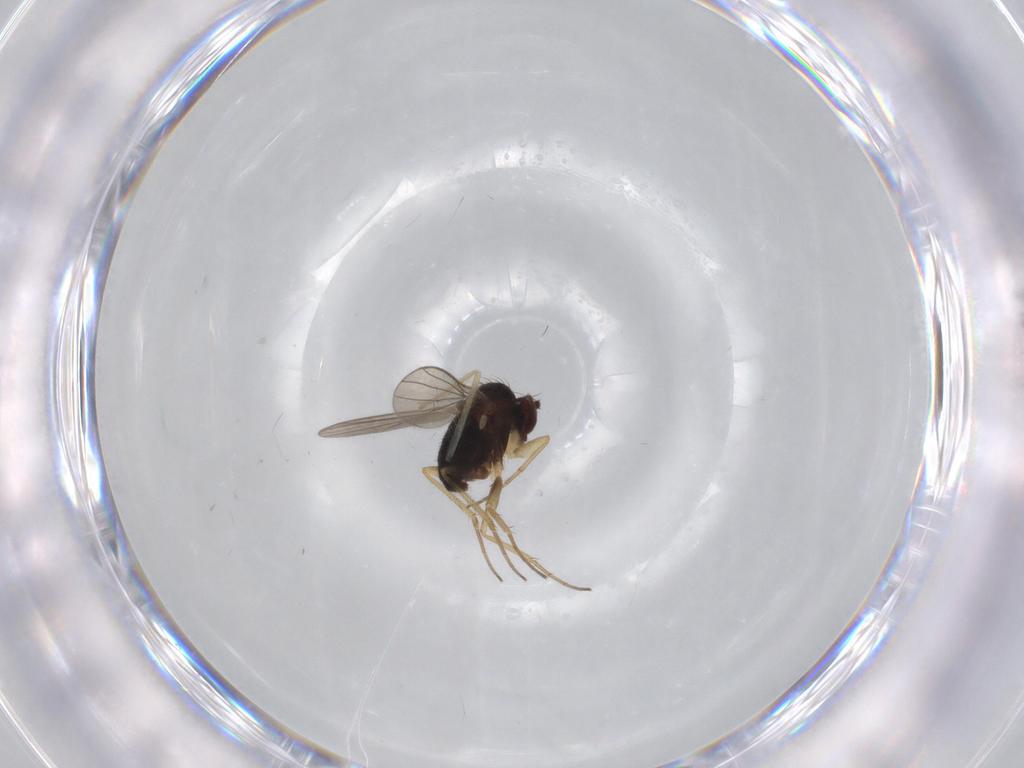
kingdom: Animalia
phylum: Arthropoda
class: Insecta
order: Diptera
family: Dolichopodidae
